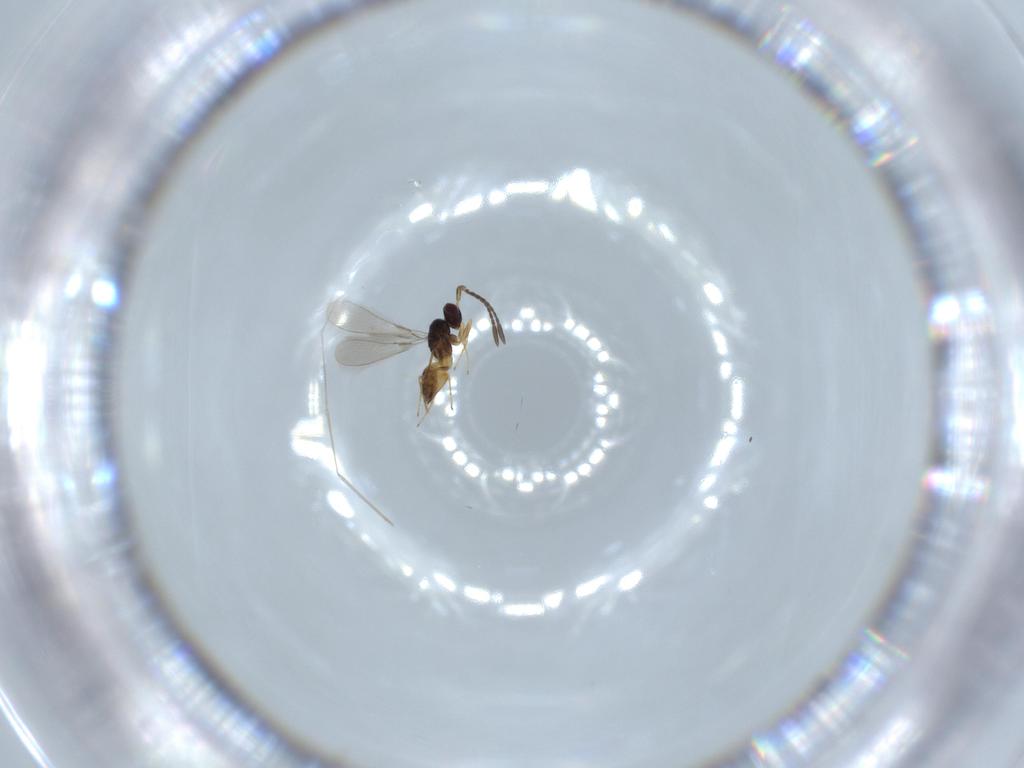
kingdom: Animalia
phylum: Arthropoda
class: Insecta
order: Hymenoptera
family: Mymaridae
